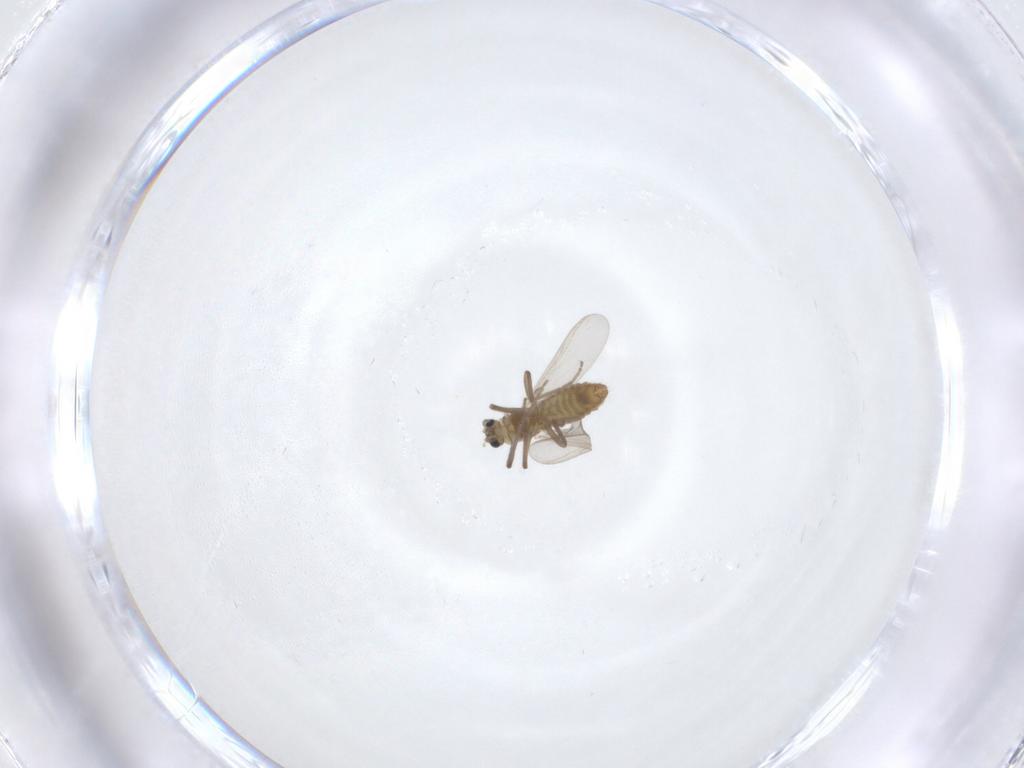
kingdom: Animalia
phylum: Arthropoda
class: Insecta
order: Diptera
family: Chironomidae
